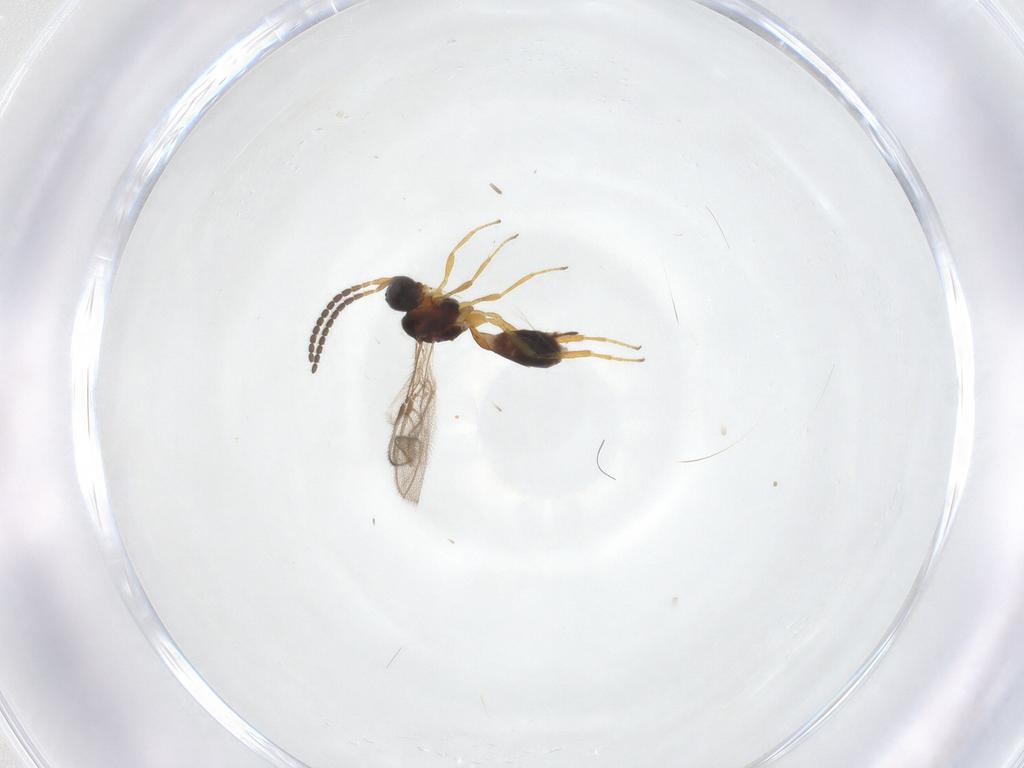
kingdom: Animalia
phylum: Arthropoda
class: Insecta
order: Hymenoptera
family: Braconidae
